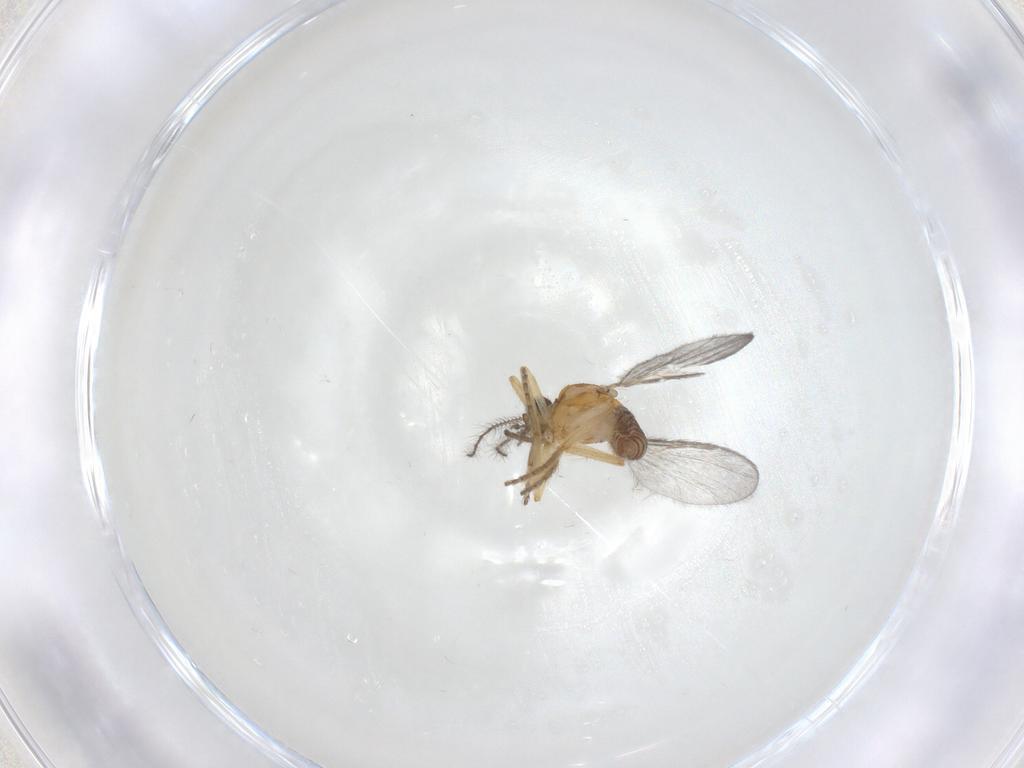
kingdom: Animalia
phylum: Arthropoda
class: Insecta
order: Diptera
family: Ceratopogonidae
